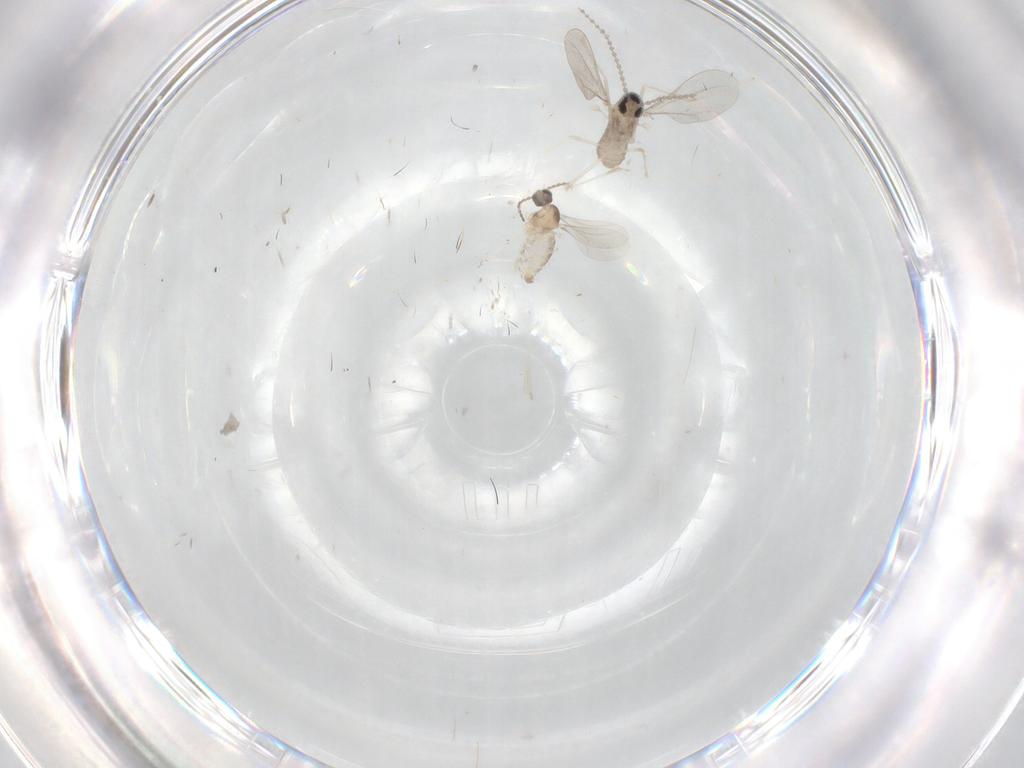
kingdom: Animalia
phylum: Arthropoda
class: Insecta
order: Diptera
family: Cecidomyiidae
